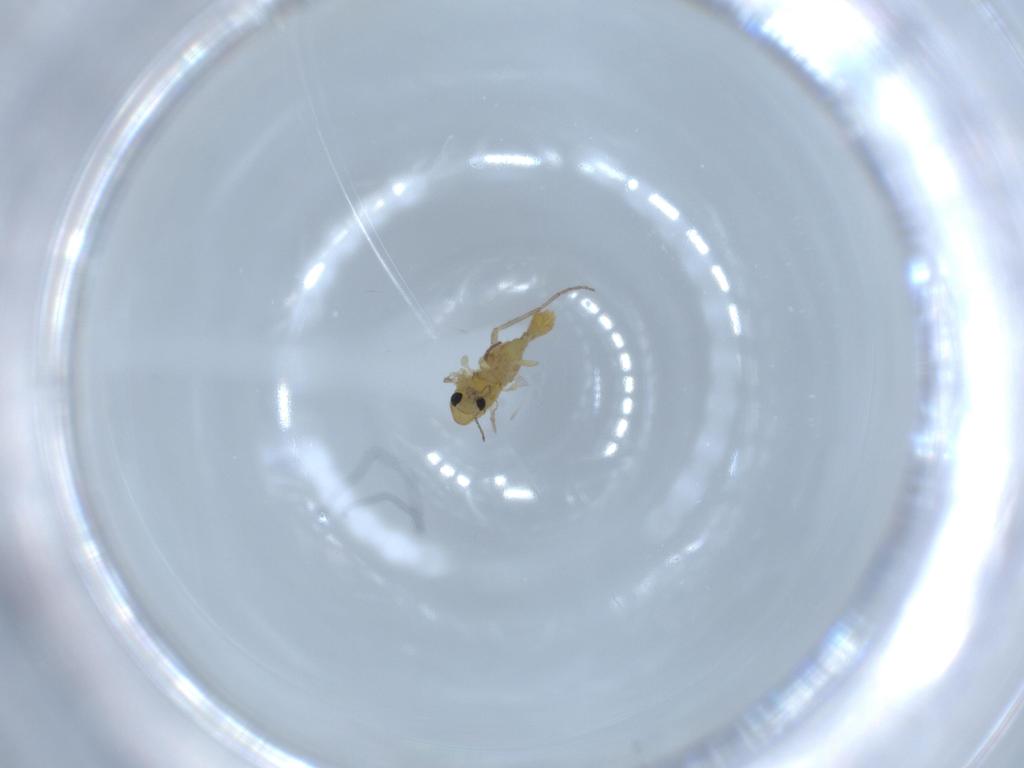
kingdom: Animalia
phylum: Arthropoda
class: Insecta
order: Diptera
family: Chironomidae
